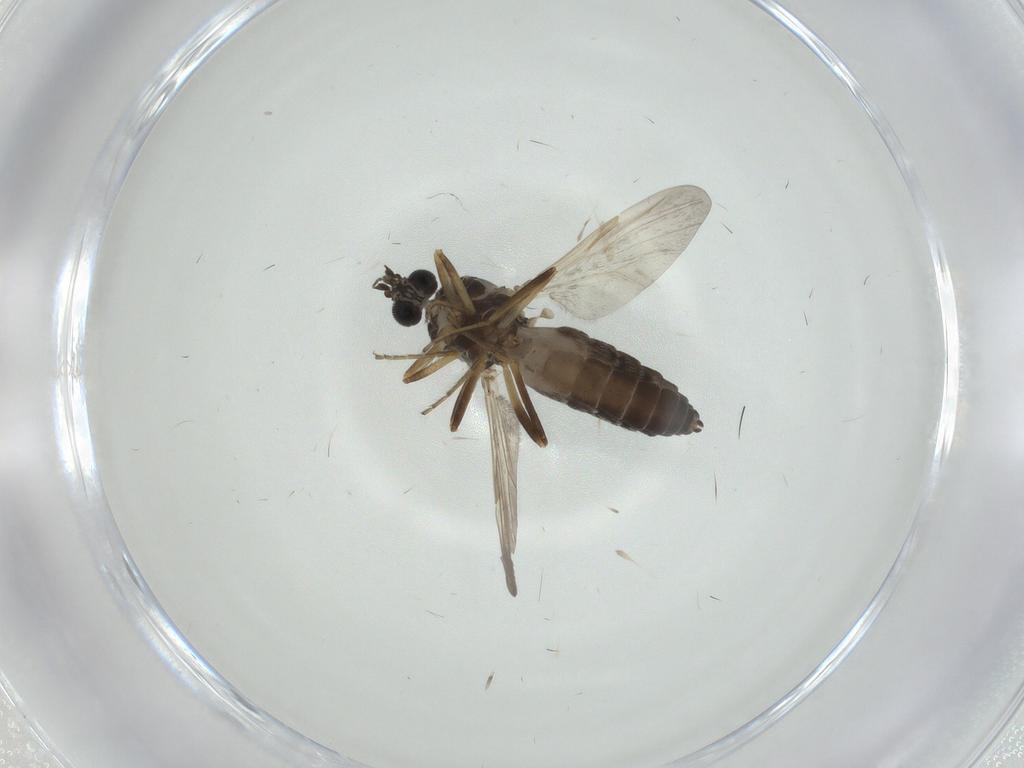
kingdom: Animalia
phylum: Arthropoda
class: Insecta
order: Diptera
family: Ceratopogonidae
